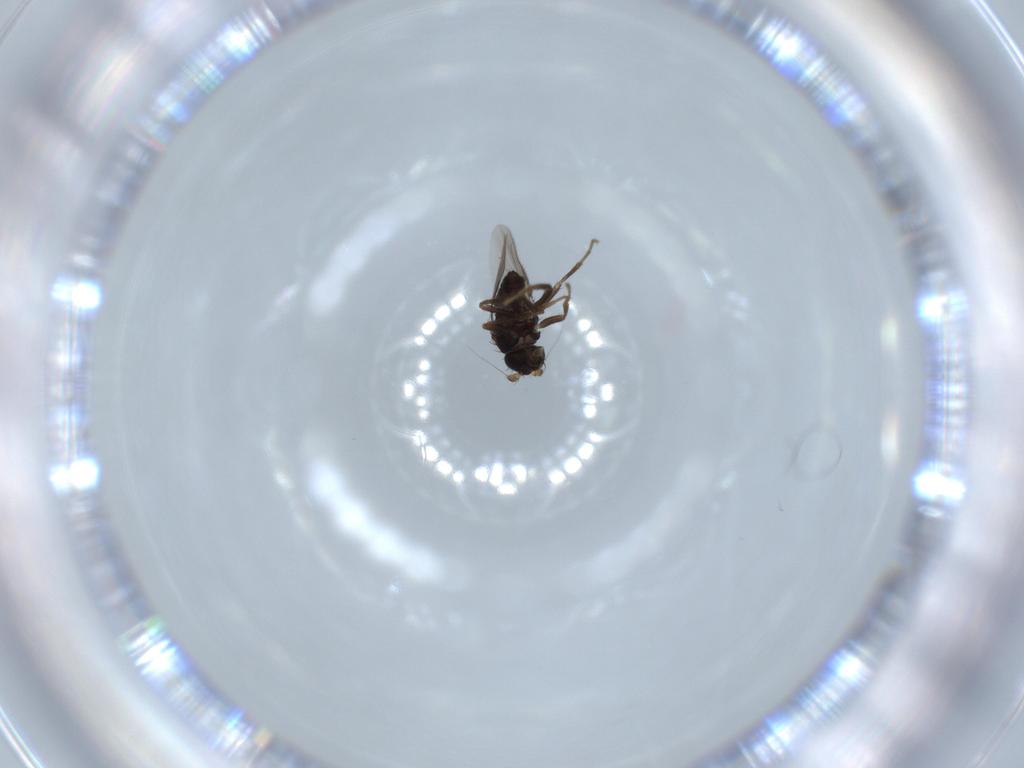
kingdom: Animalia
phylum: Arthropoda
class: Insecta
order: Diptera
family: Sphaeroceridae
